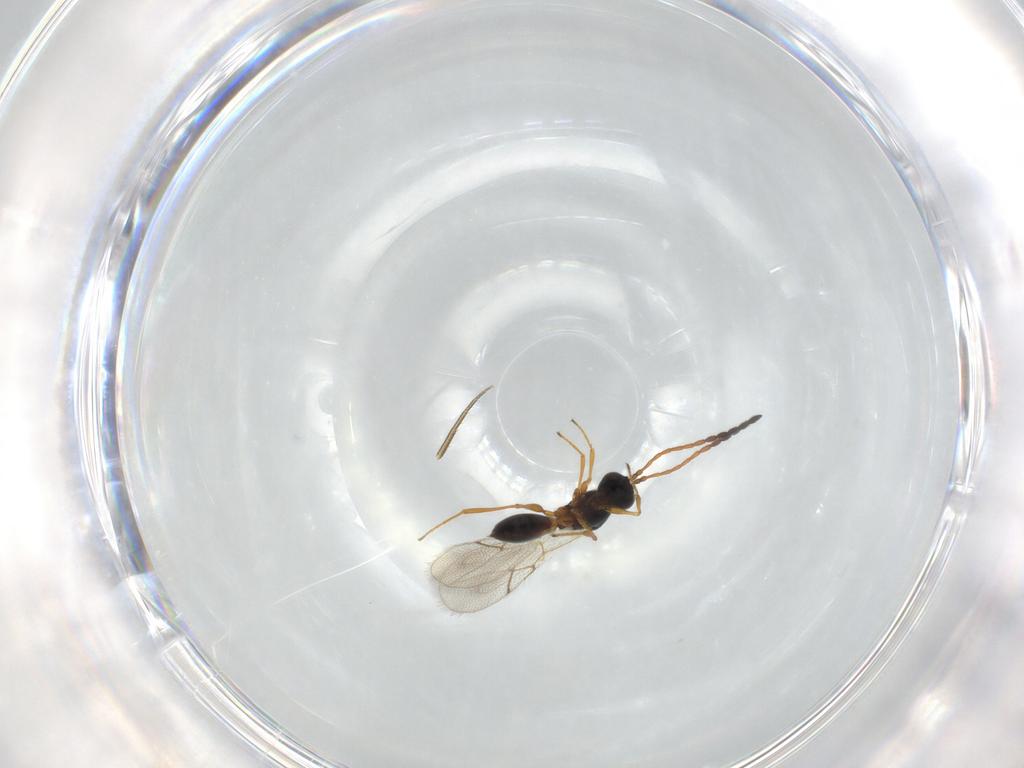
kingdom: Animalia
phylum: Arthropoda
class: Insecta
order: Hymenoptera
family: Figitidae
